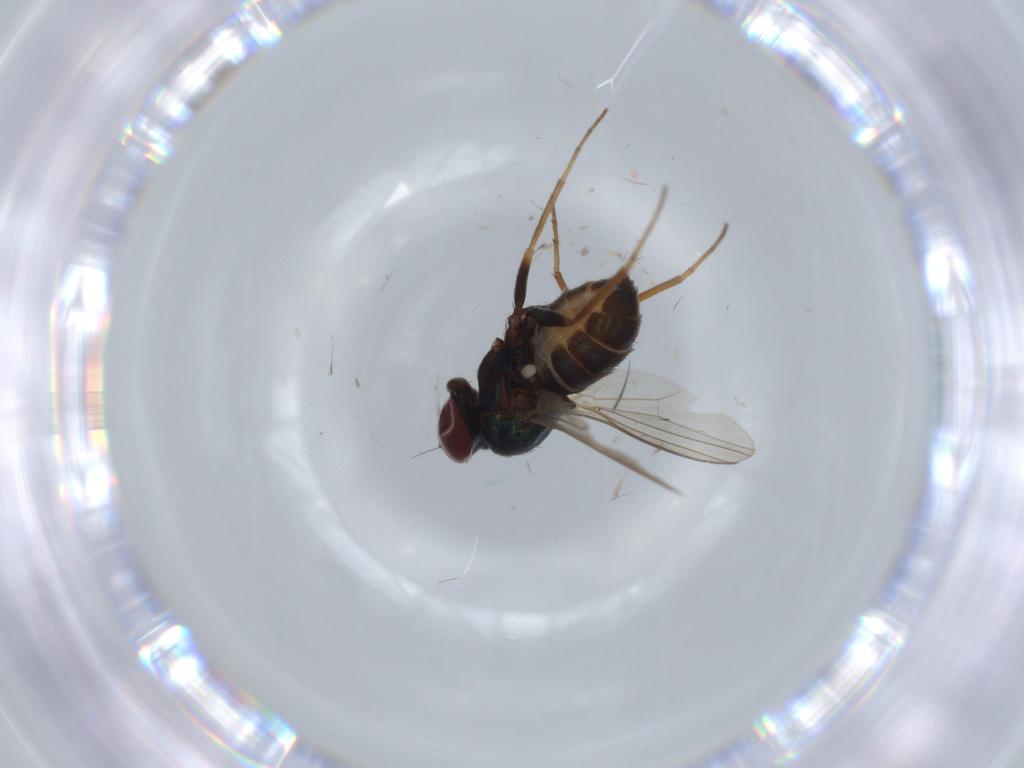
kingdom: Animalia
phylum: Arthropoda
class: Insecta
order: Diptera
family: Dolichopodidae
